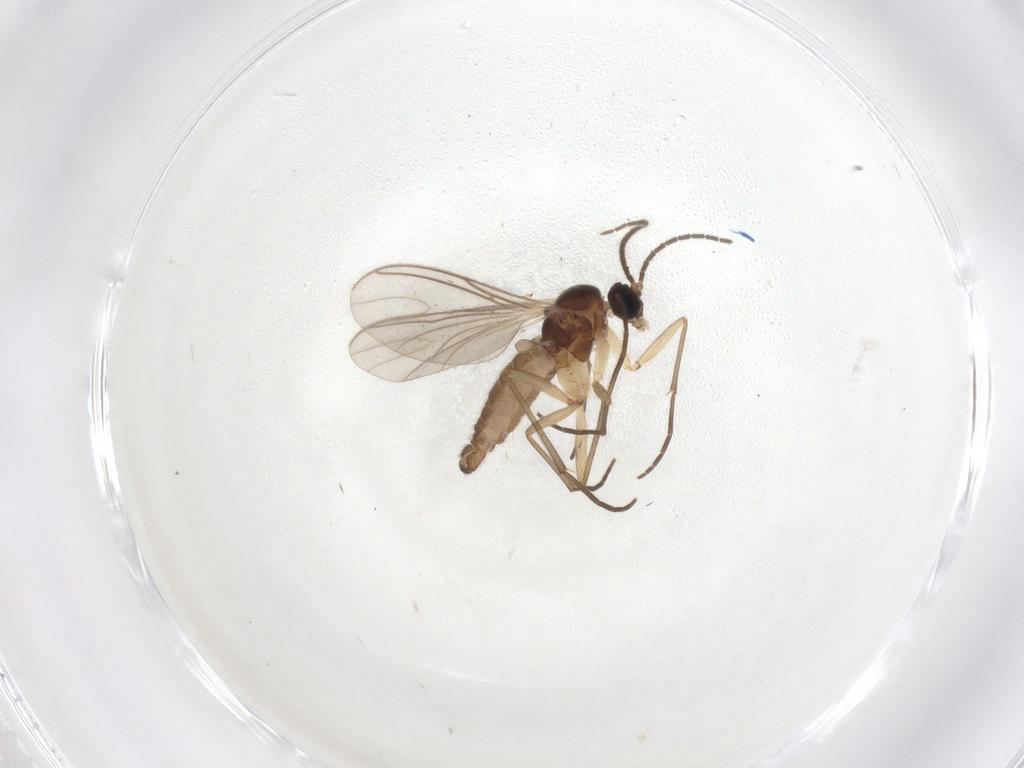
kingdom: Animalia
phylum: Arthropoda
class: Insecta
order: Diptera
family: Sciaridae
